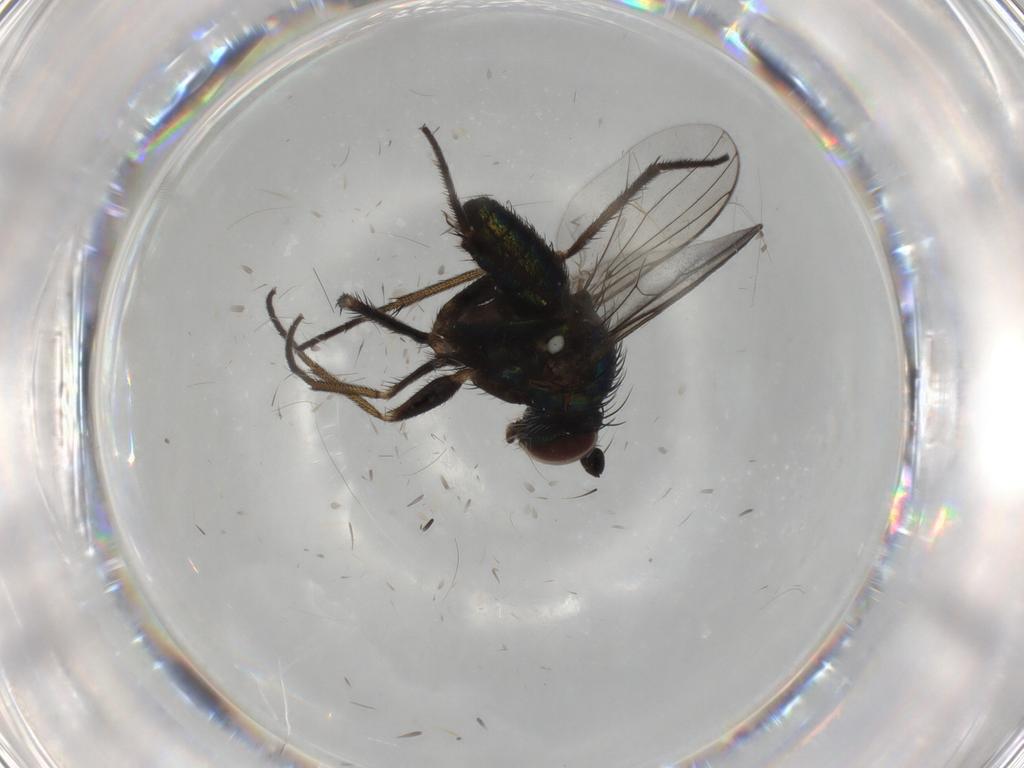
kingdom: Animalia
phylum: Arthropoda
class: Insecta
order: Diptera
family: Dolichopodidae
